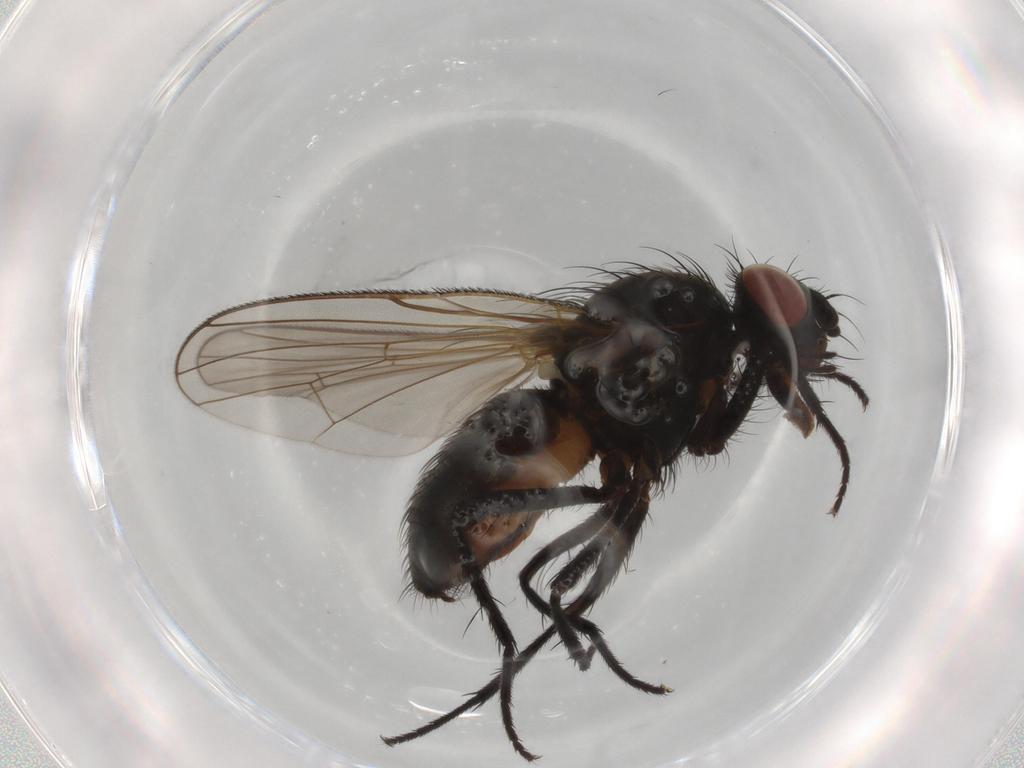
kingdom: Animalia
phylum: Arthropoda
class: Insecta
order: Diptera
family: Anthomyiidae
